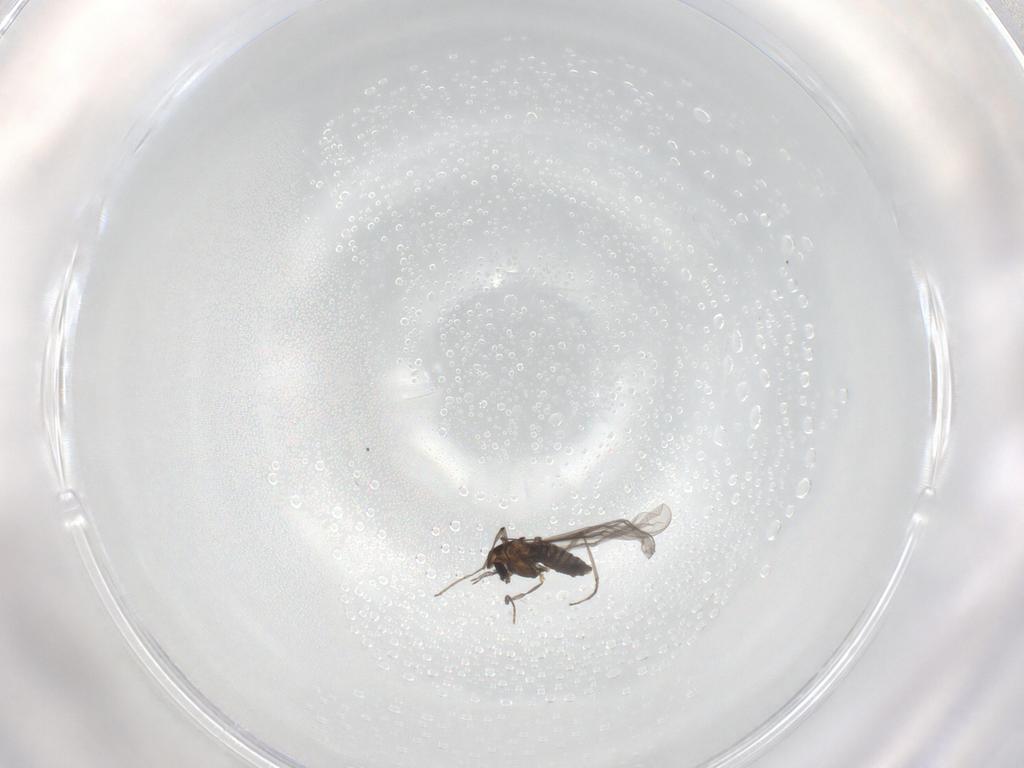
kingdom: Animalia
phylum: Arthropoda
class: Insecta
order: Diptera
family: Chironomidae
